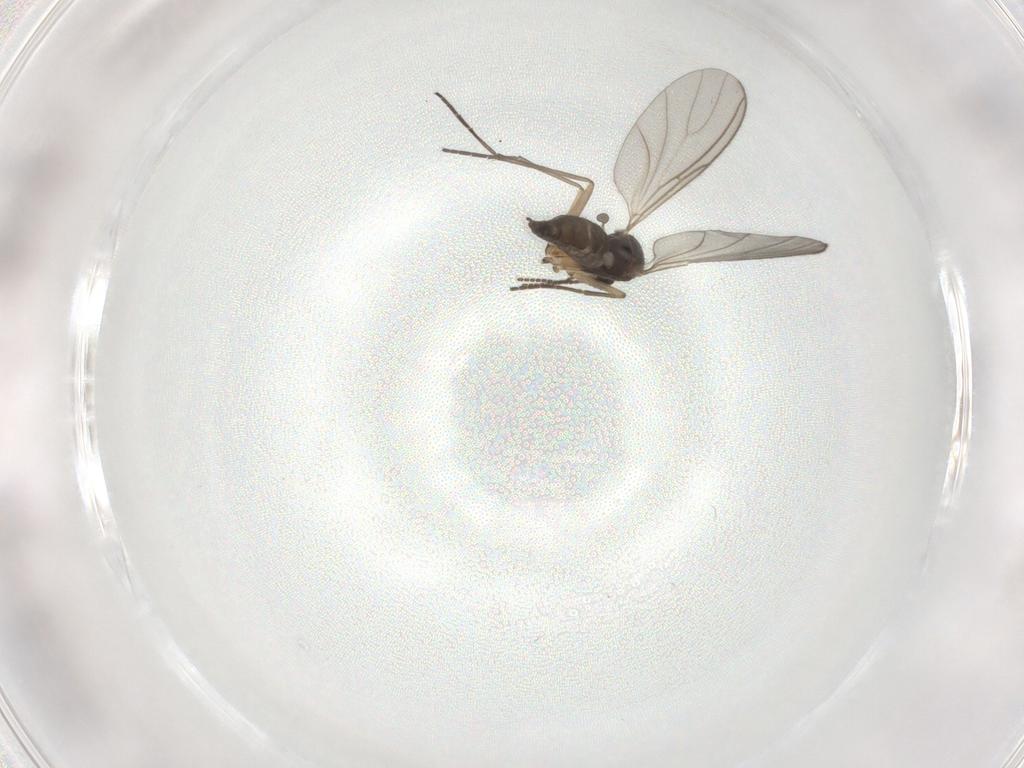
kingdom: Animalia
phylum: Arthropoda
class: Insecta
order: Diptera
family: Sciaridae
